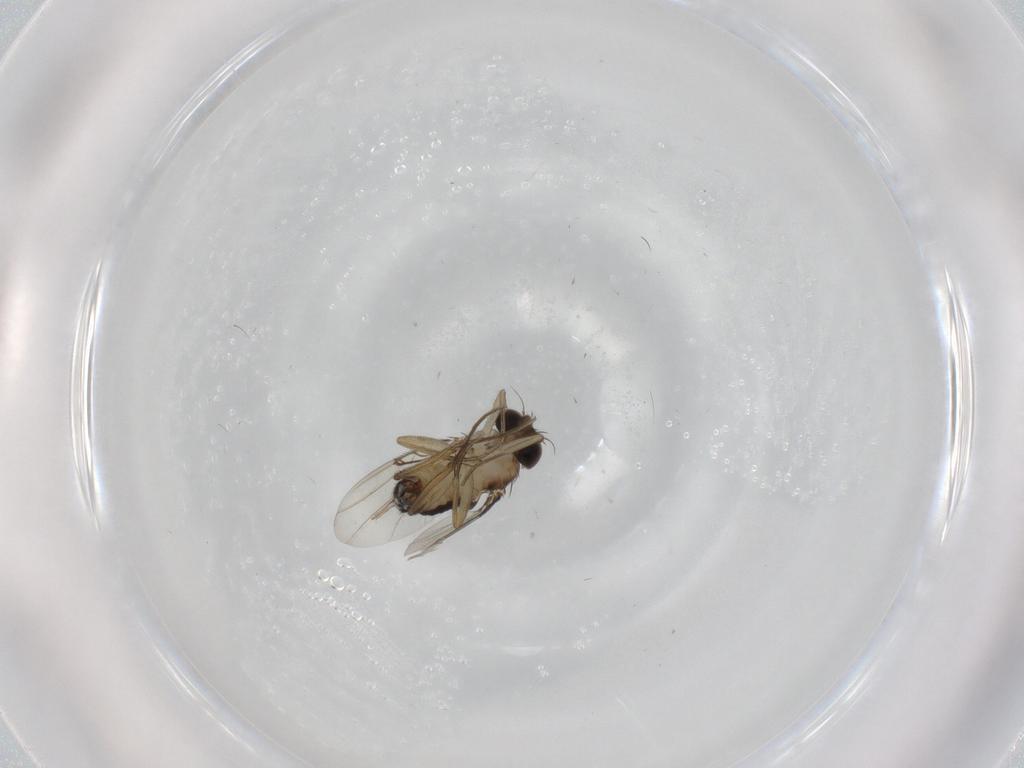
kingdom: Animalia
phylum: Arthropoda
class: Insecta
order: Diptera
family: Phoridae
